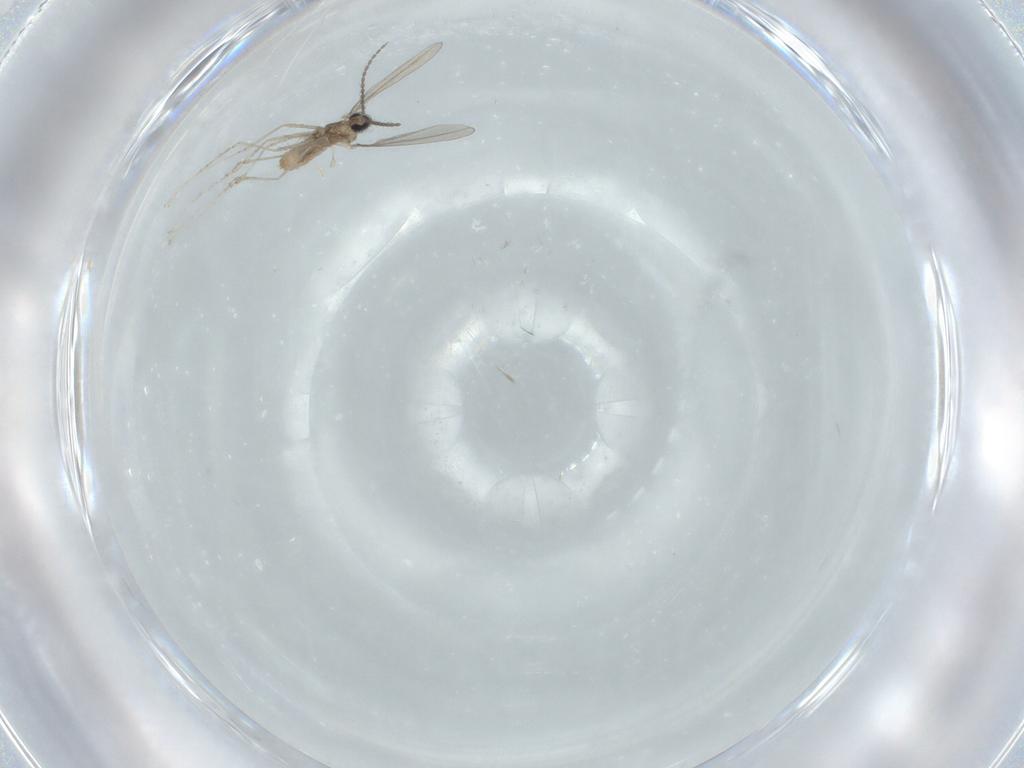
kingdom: Animalia
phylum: Arthropoda
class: Insecta
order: Diptera
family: Cecidomyiidae
